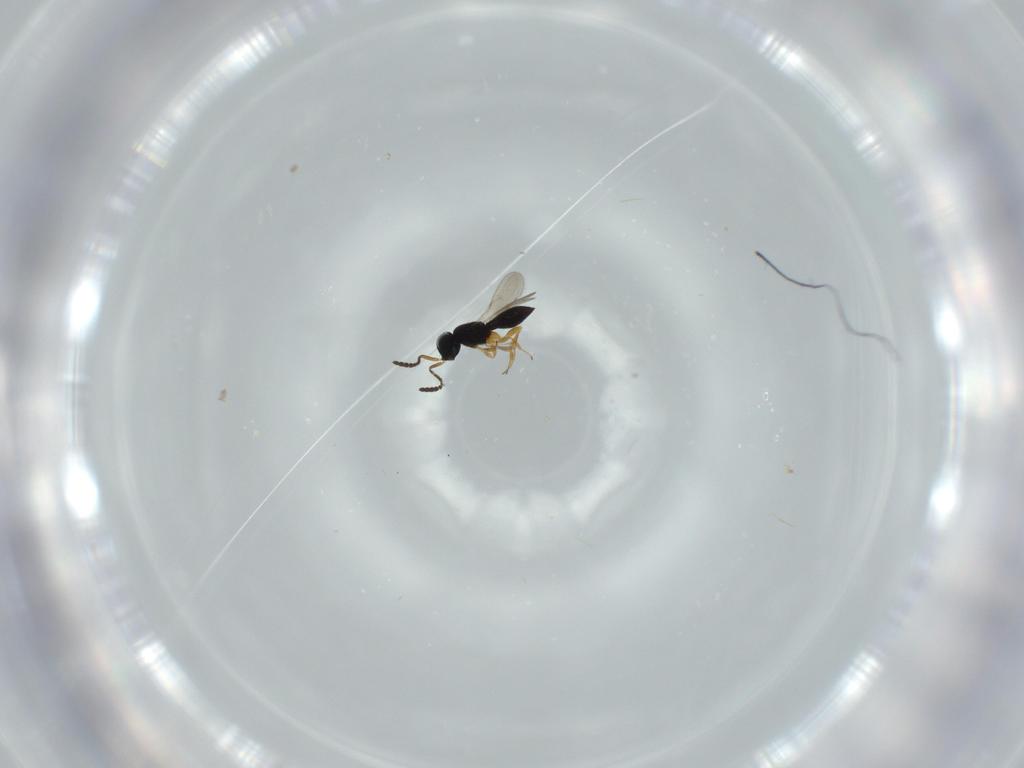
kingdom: Animalia
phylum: Arthropoda
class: Insecta
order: Hymenoptera
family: Scelionidae
